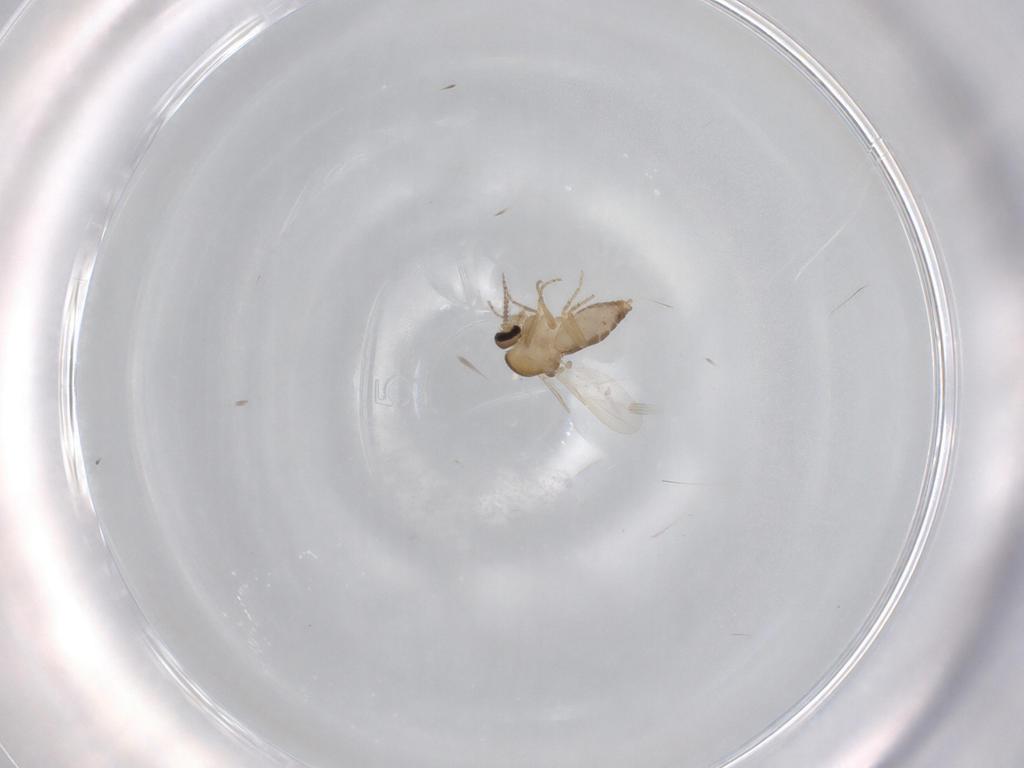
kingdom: Animalia
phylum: Arthropoda
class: Insecta
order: Diptera
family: Ceratopogonidae
